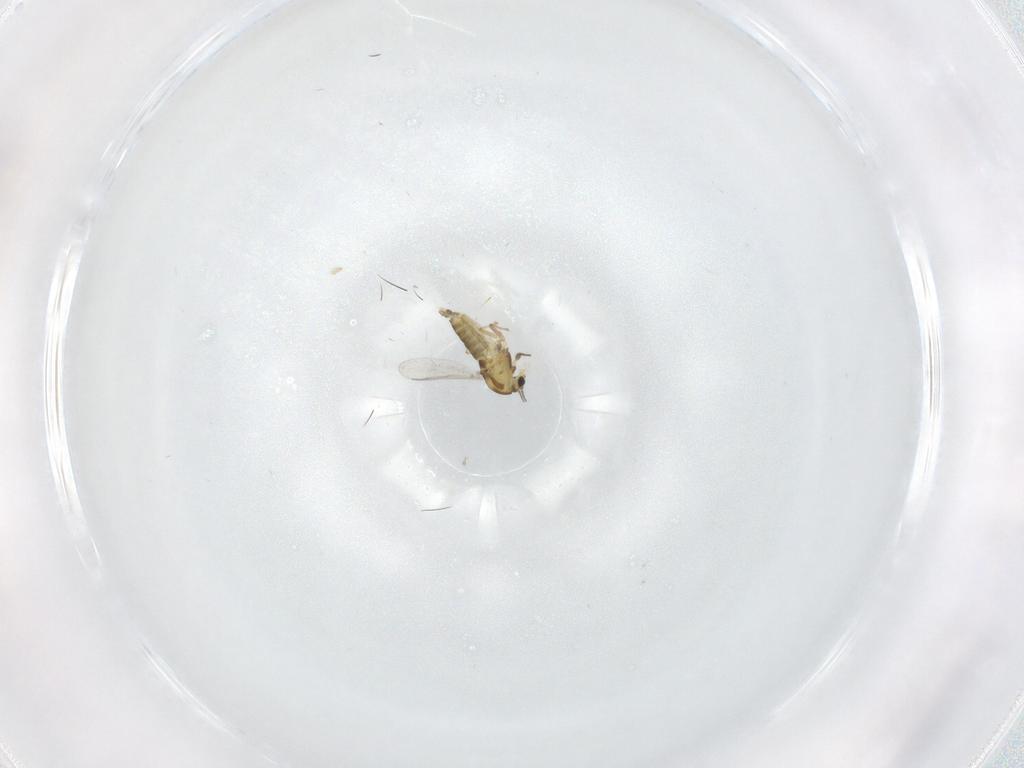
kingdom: Animalia
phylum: Arthropoda
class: Insecta
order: Diptera
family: Chironomidae
